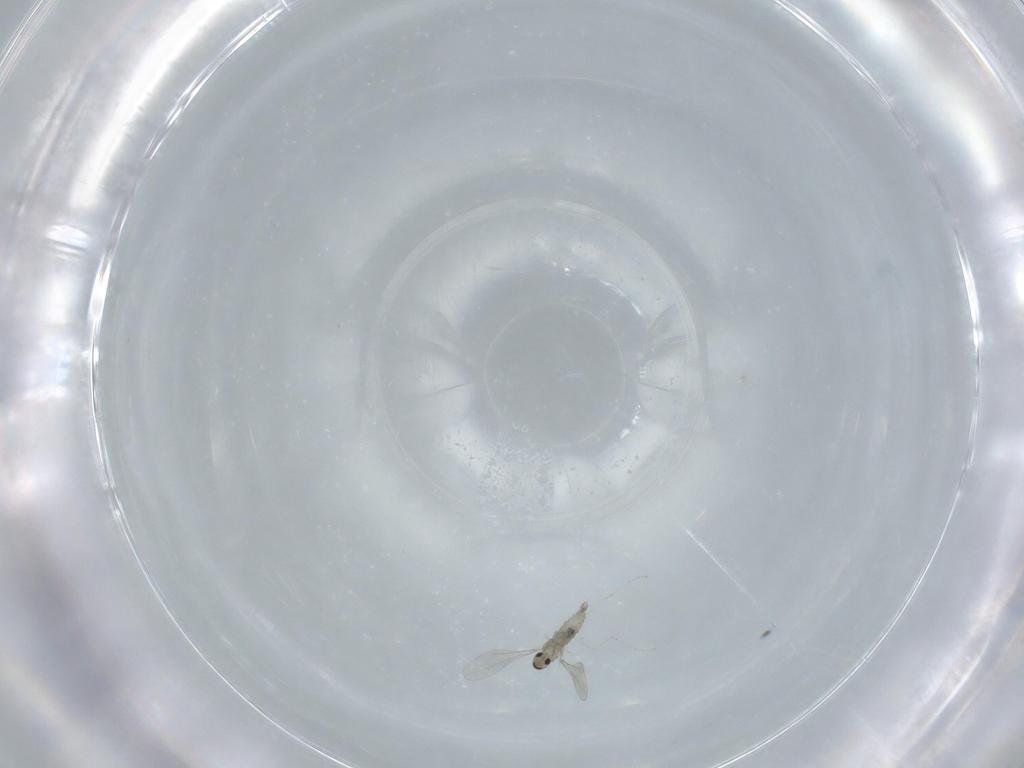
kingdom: Animalia
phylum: Arthropoda
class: Insecta
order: Diptera
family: Cecidomyiidae
